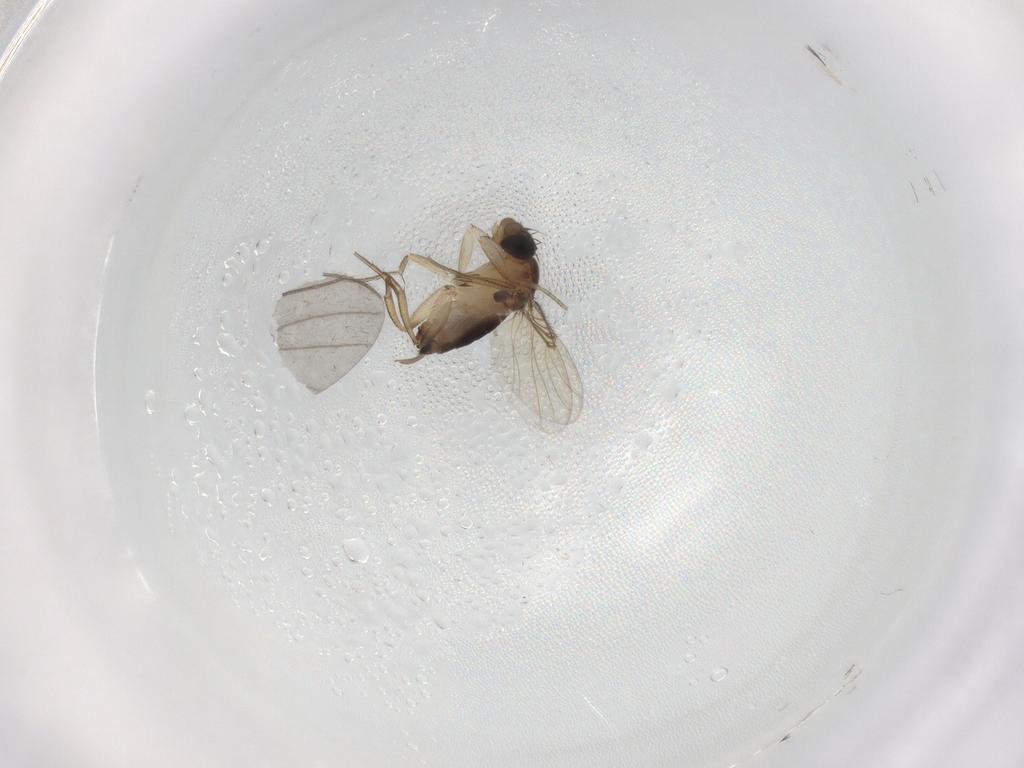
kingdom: Animalia
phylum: Arthropoda
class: Insecta
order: Diptera
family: Phoridae
